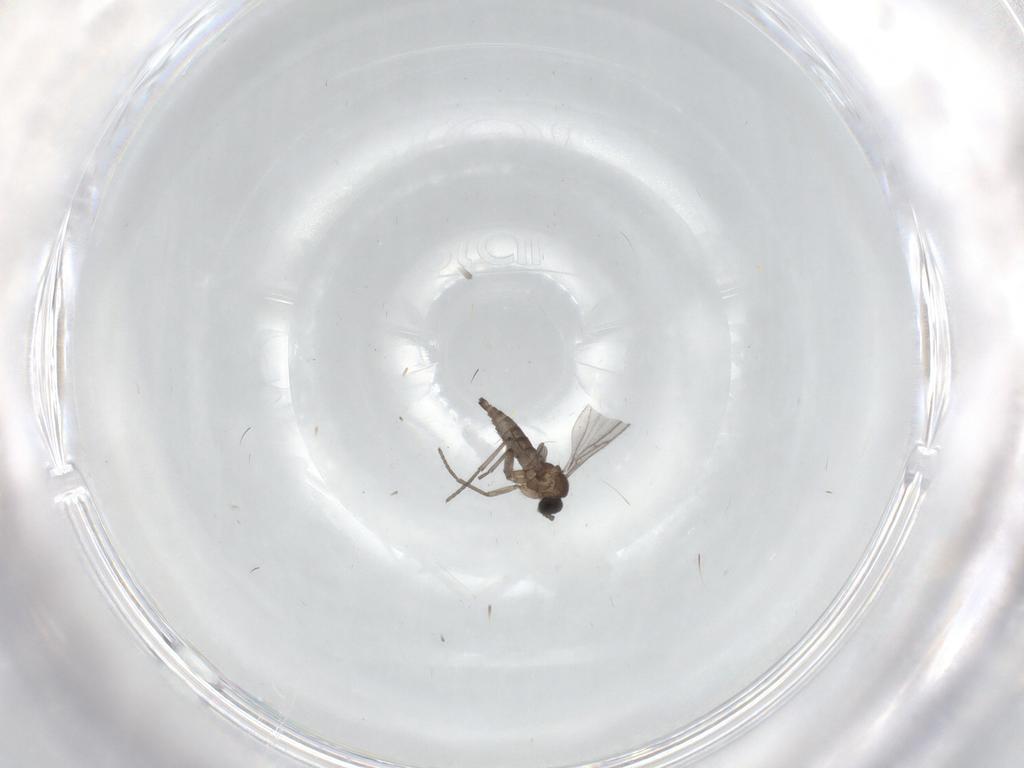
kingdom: Animalia
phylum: Arthropoda
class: Insecta
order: Diptera
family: Sciaridae
